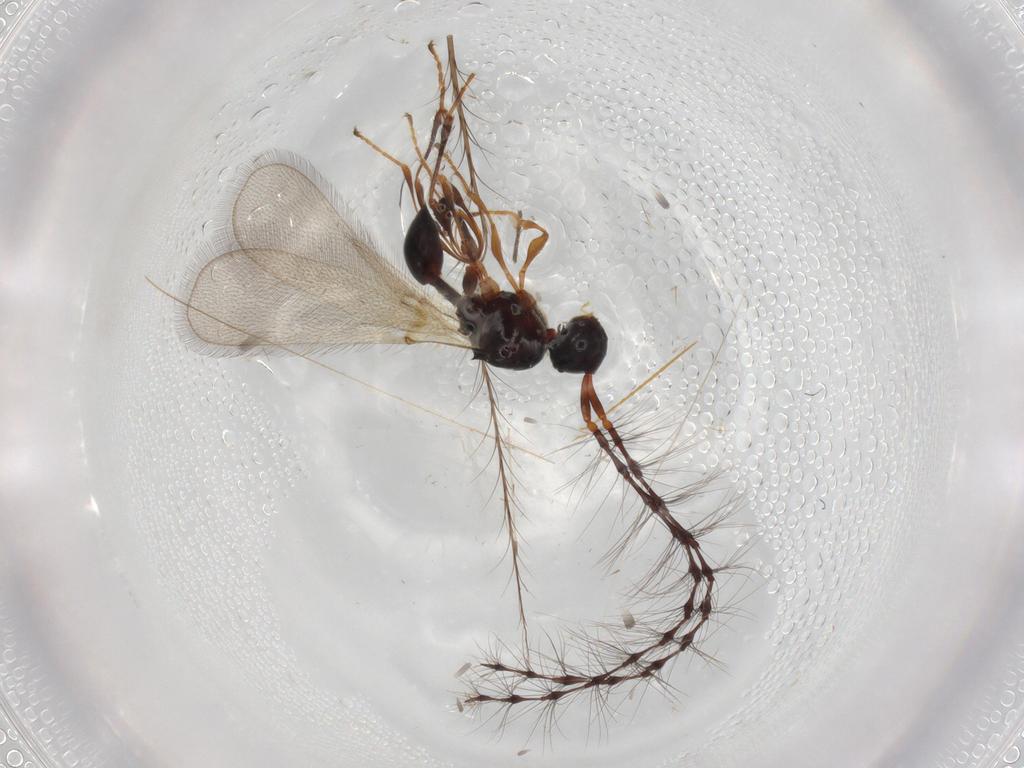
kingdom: Animalia
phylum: Arthropoda
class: Insecta
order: Hymenoptera
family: Diapriidae
